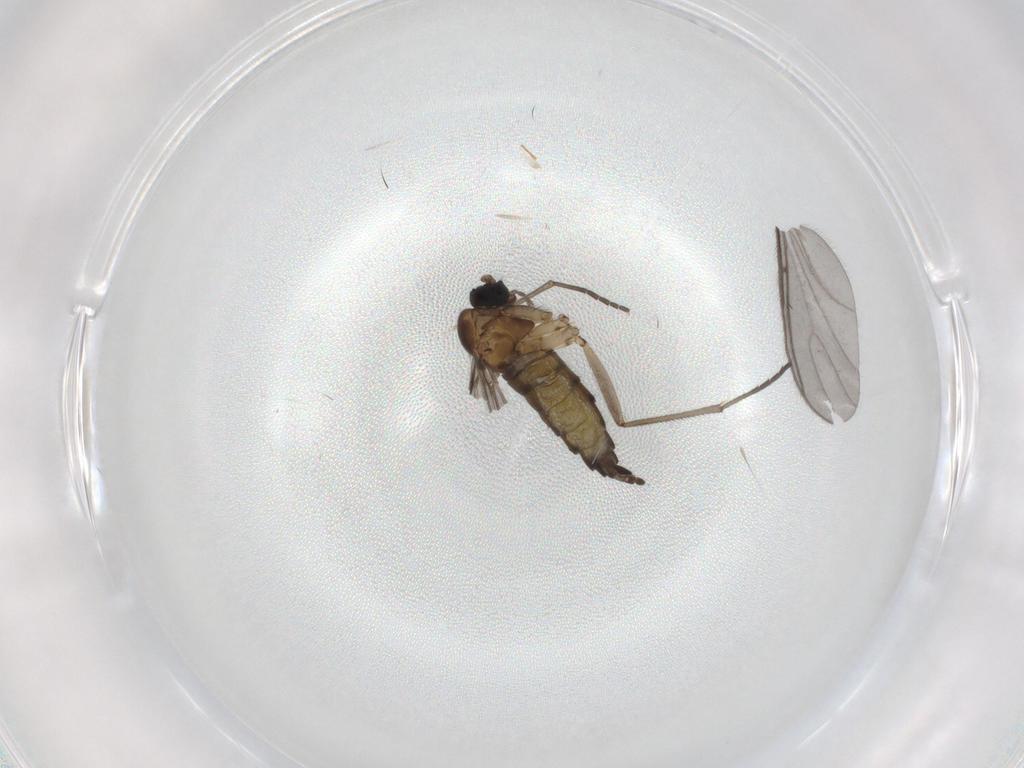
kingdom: Animalia
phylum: Arthropoda
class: Insecta
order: Diptera
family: Sciaridae
